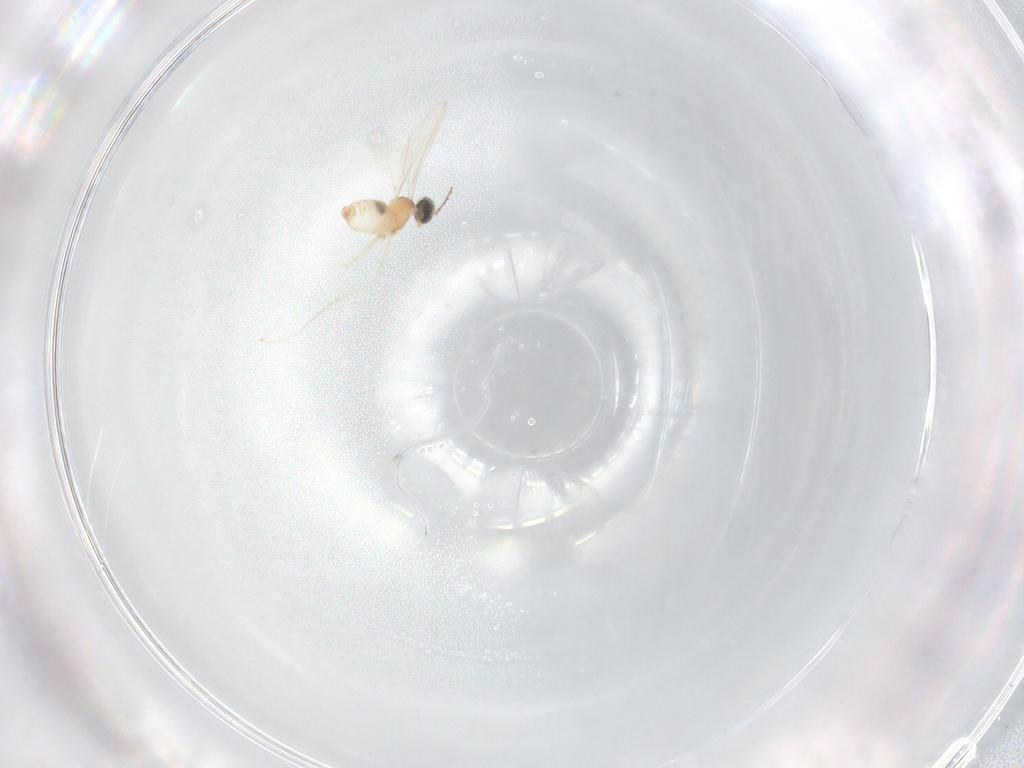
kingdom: Animalia
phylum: Arthropoda
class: Insecta
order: Diptera
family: Cecidomyiidae
